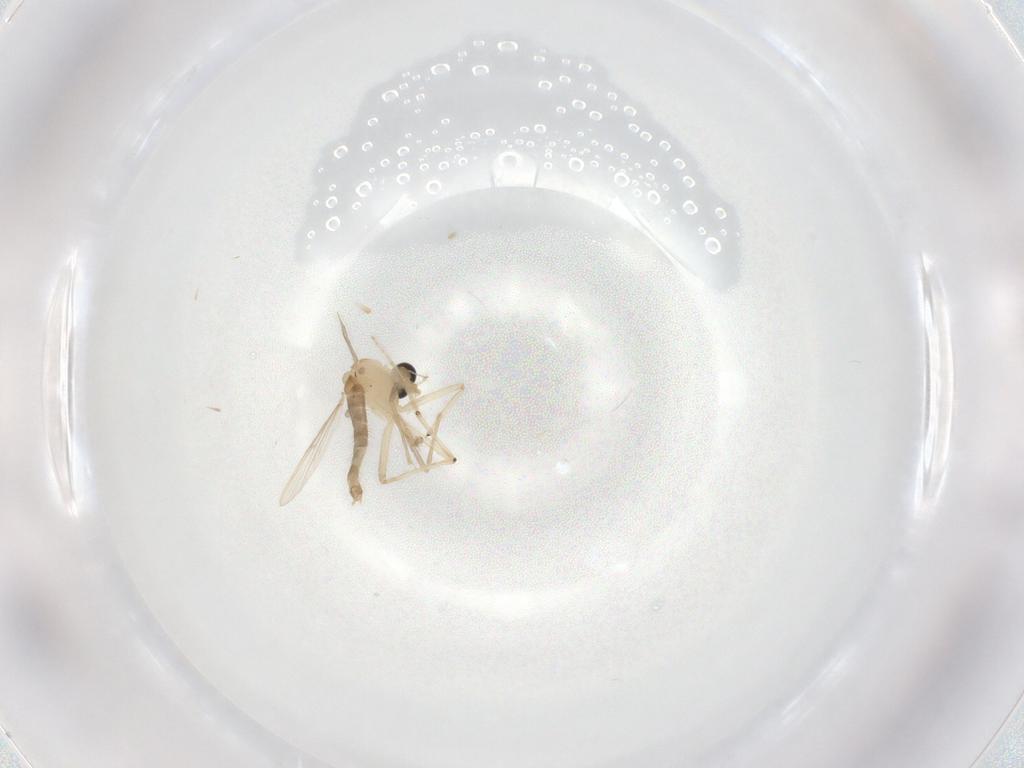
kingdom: Animalia
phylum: Arthropoda
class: Insecta
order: Diptera
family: Chironomidae
